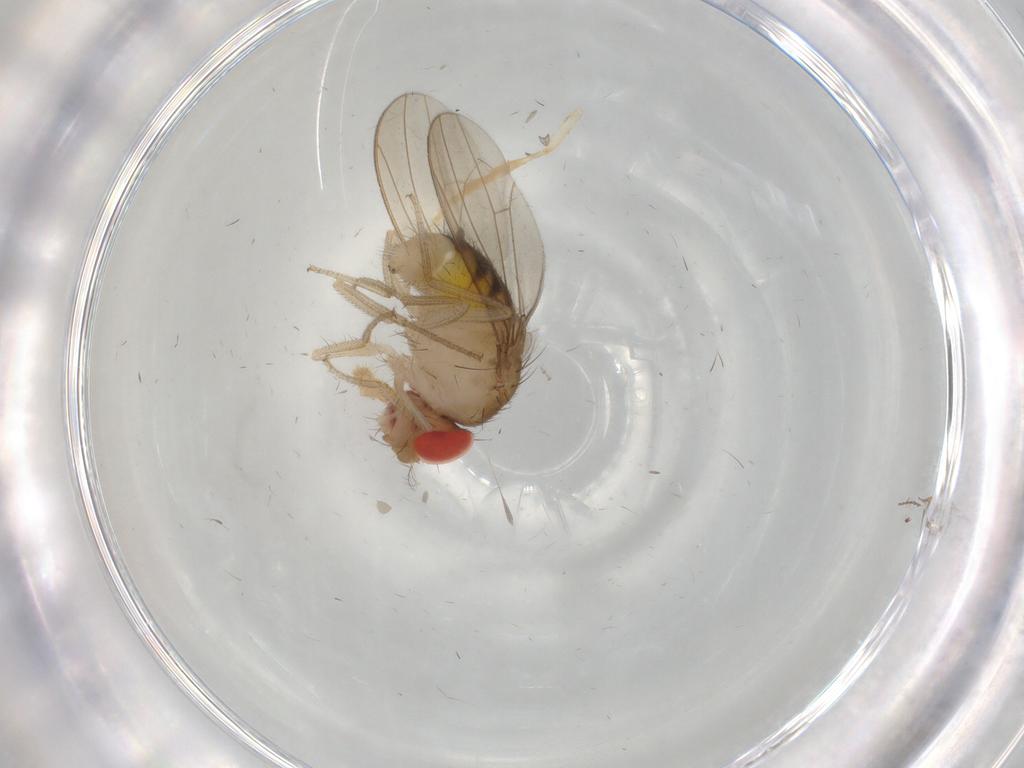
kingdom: Animalia
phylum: Arthropoda
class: Insecta
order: Diptera
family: Drosophilidae
